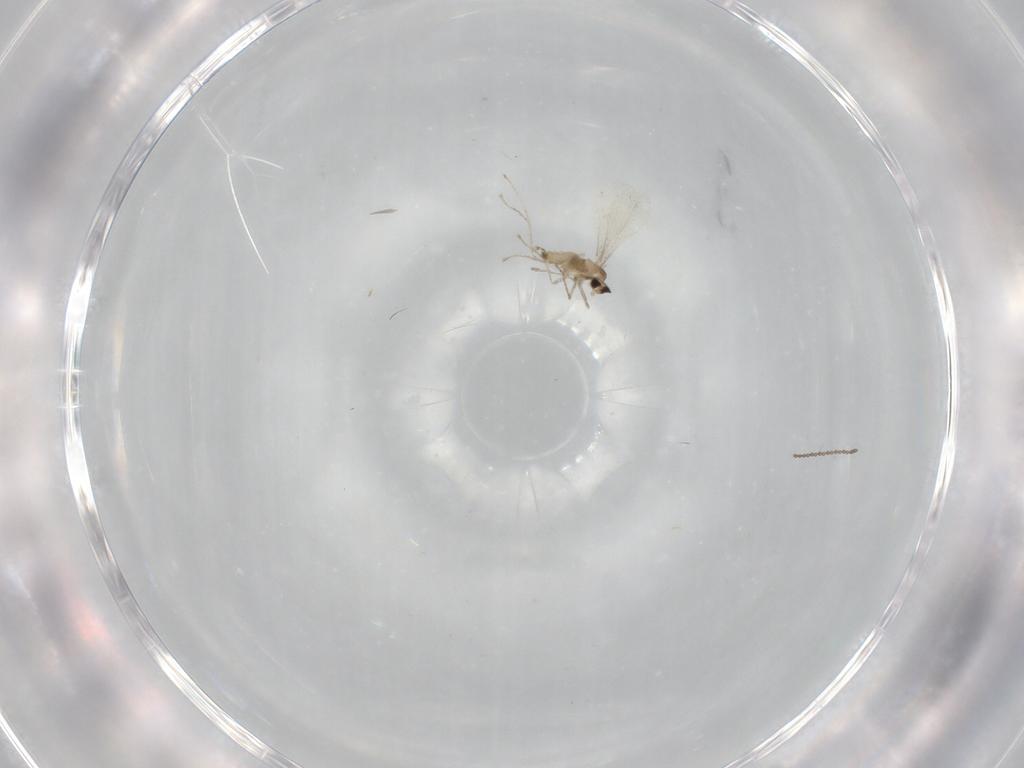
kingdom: Animalia
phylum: Arthropoda
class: Insecta
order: Diptera
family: Cecidomyiidae
